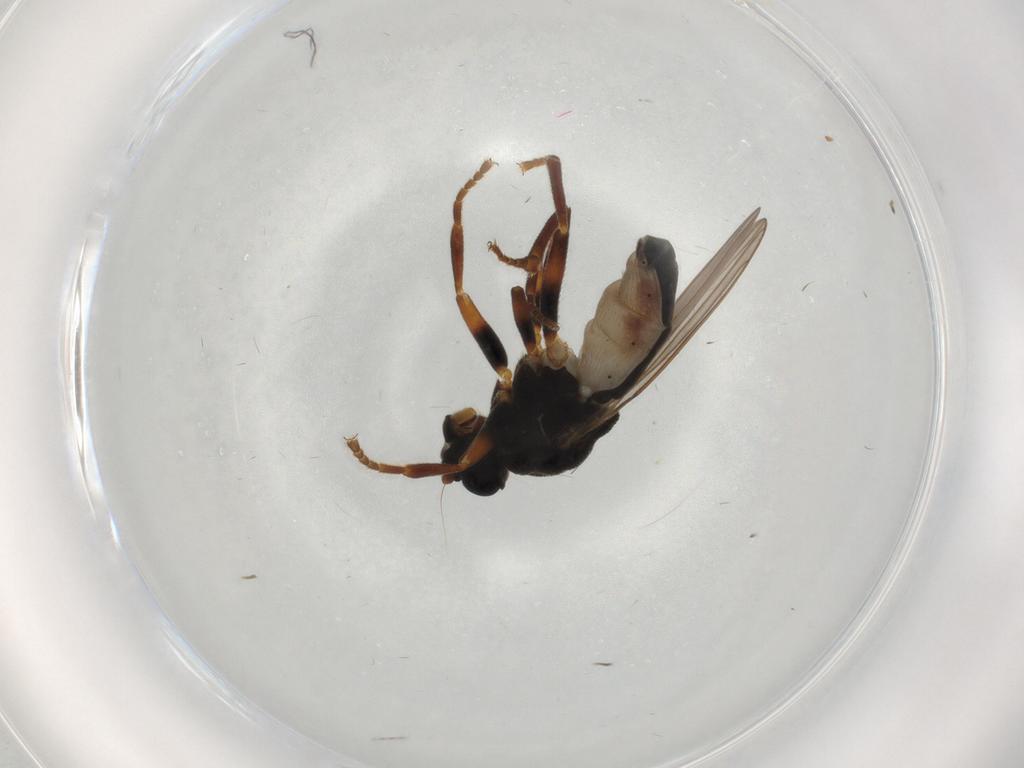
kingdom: Animalia
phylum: Arthropoda
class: Insecta
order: Diptera
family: Sphaeroceridae
